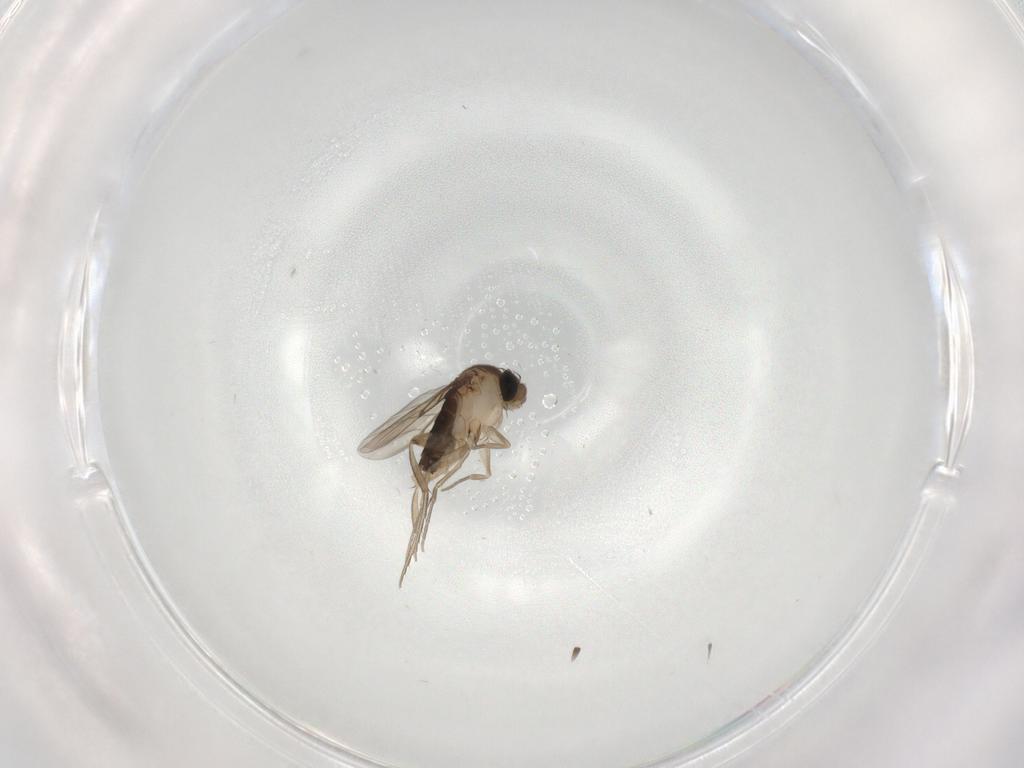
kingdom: Animalia
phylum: Arthropoda
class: Insecta
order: Diptera
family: Phoridae
